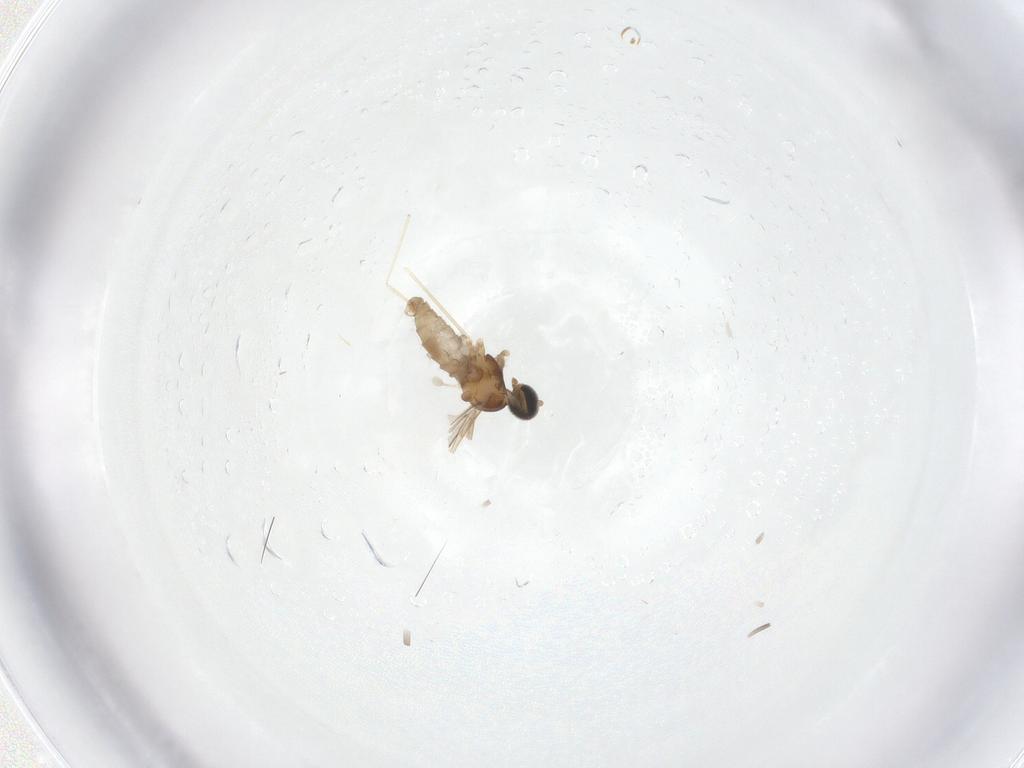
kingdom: Animalia
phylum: Arthropoda
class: Insecta
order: Diptera
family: Cecidomyiidae
